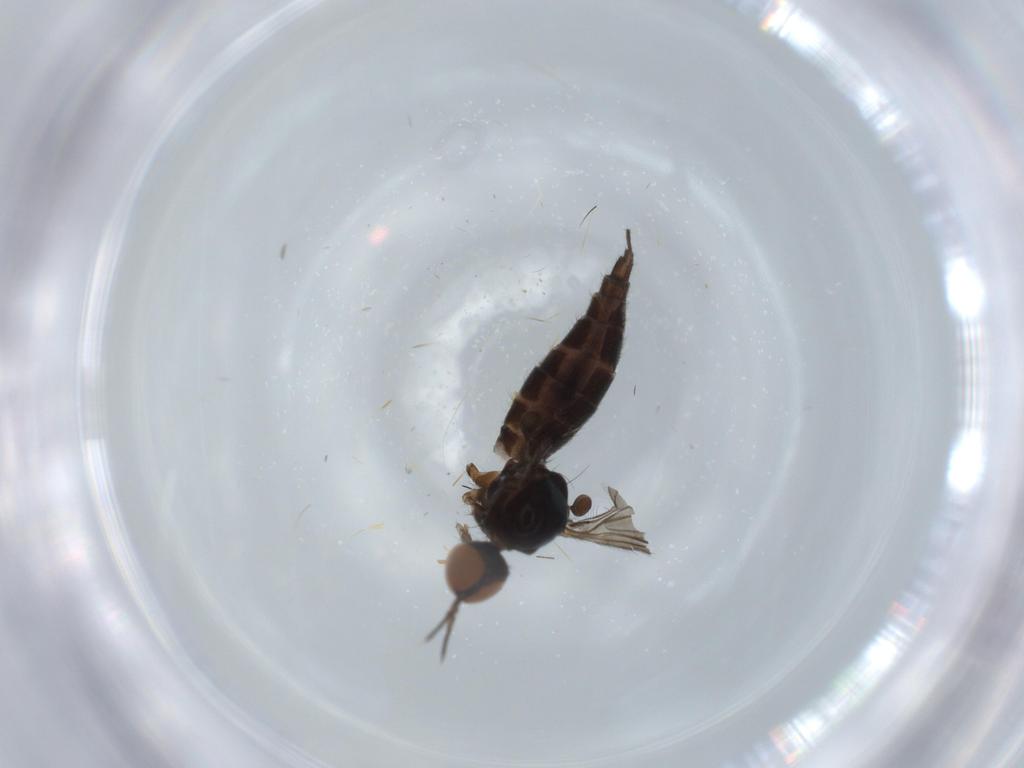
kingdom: Animalia
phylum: Arthropoda
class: Insecta
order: Diptera
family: Empididae
